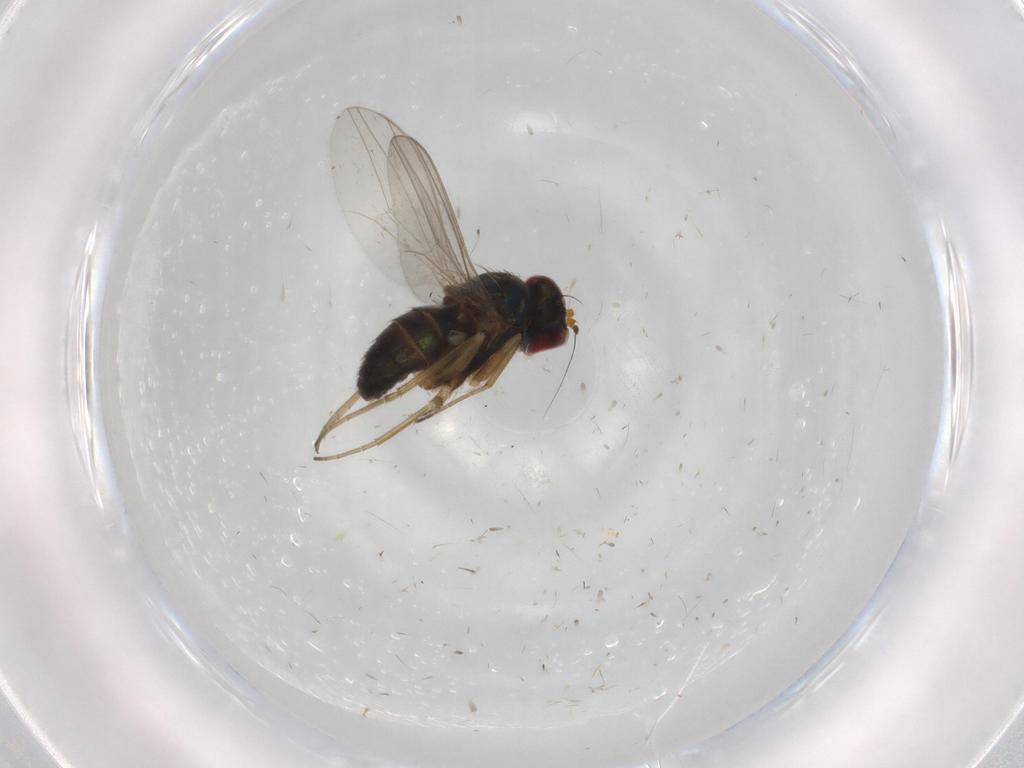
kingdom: Animalia
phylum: Arthropoda
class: Insecta
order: Diptera
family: Dolichopodidae
